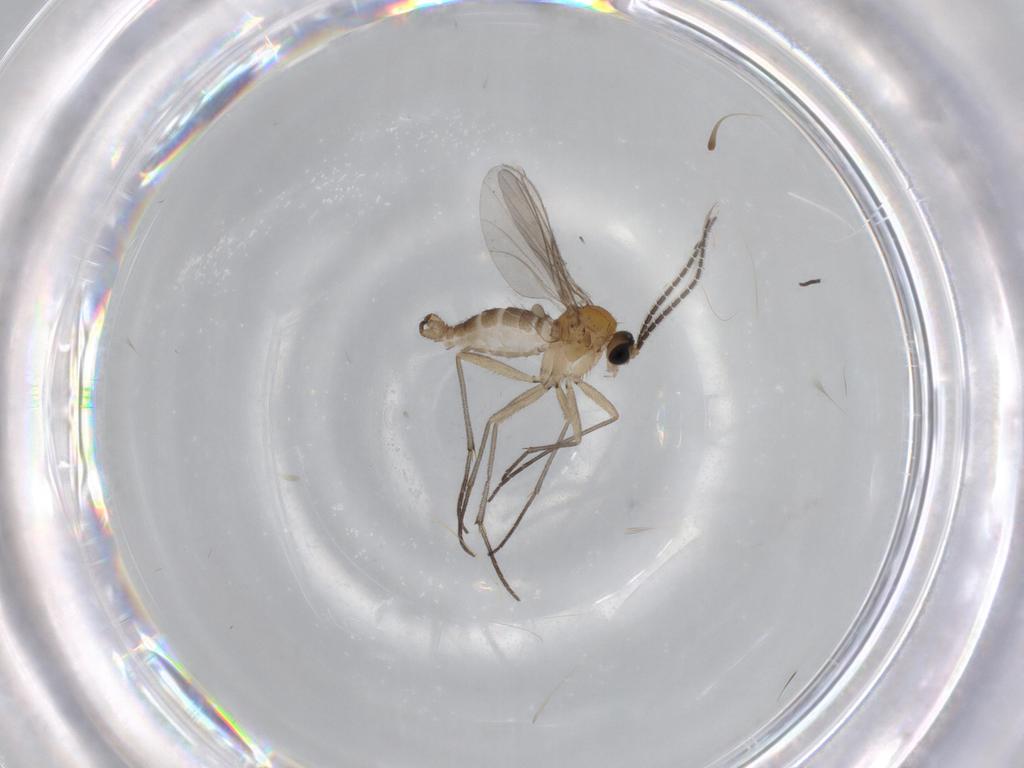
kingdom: Animalia
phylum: Arthropoda
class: Insecta
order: Diptera
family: Sciaridae
